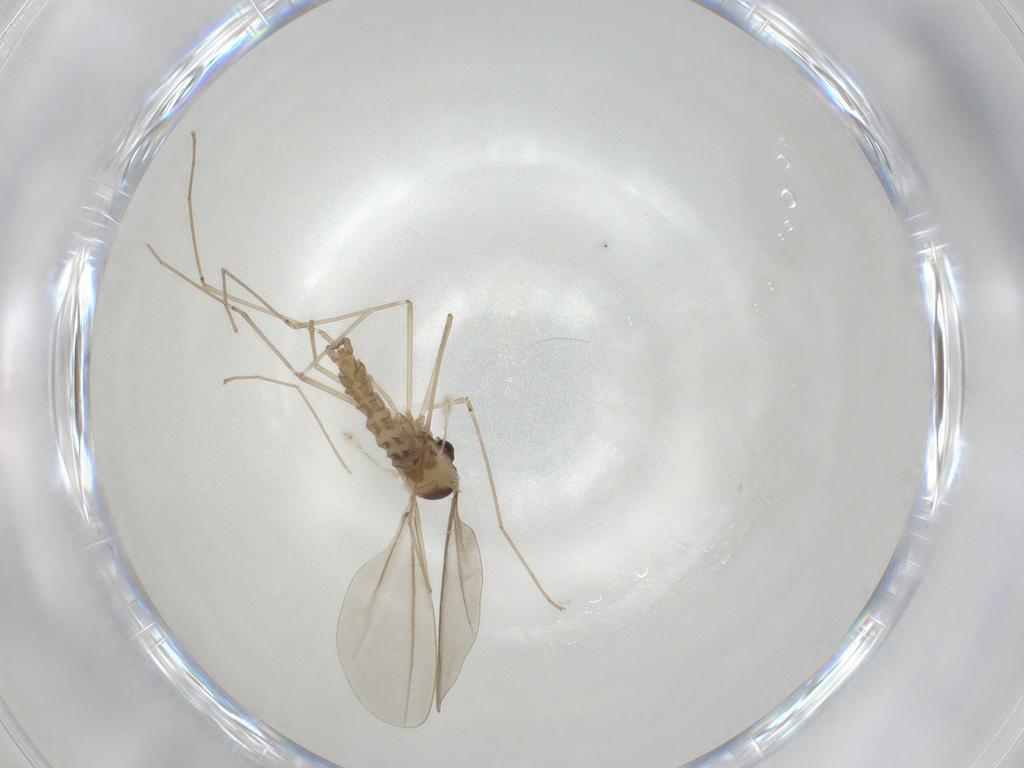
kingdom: Animalia
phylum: Arthropoda
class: Insecta
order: Diptera
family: Cecidomyiidae
